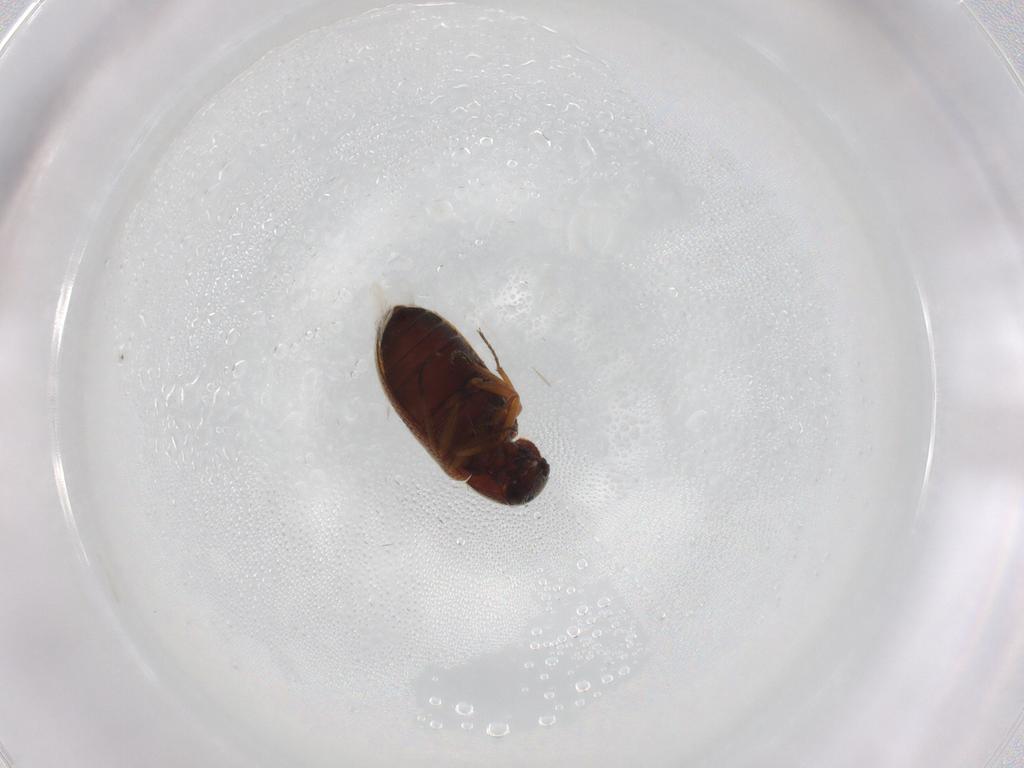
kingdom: Animalia
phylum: Arthropoda
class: Insecta
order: Coleoptera
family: Rhadalidae
